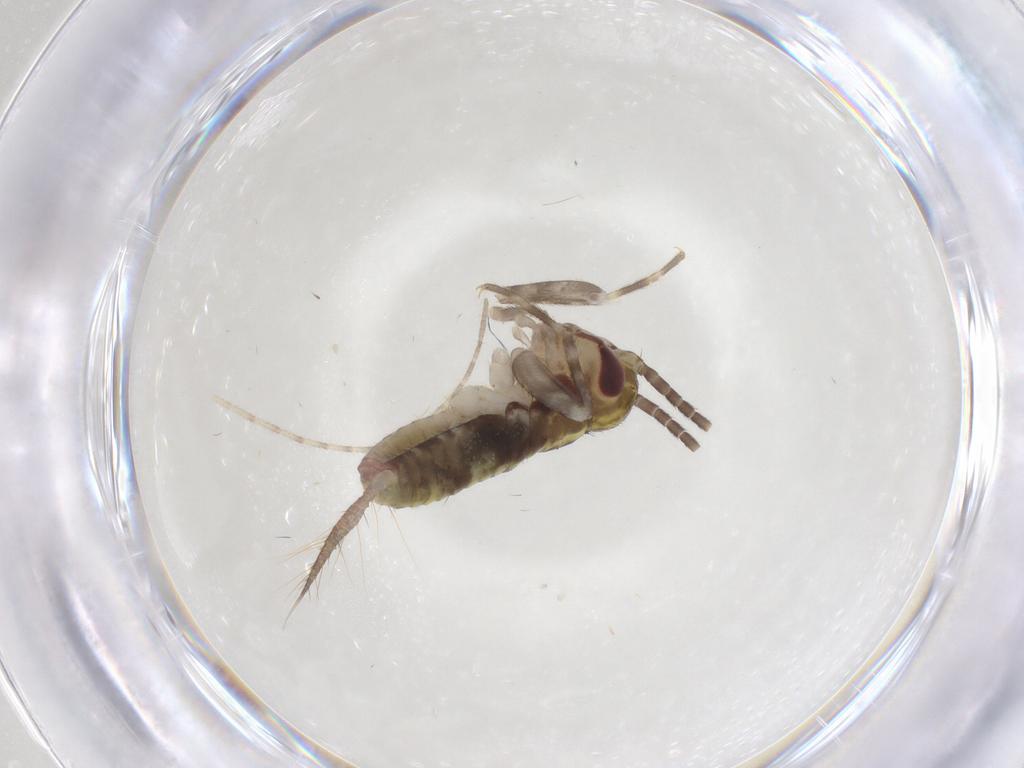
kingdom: Animalia
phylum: Arthropoda
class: Insecta
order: Orthoptera
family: Gryllidae
